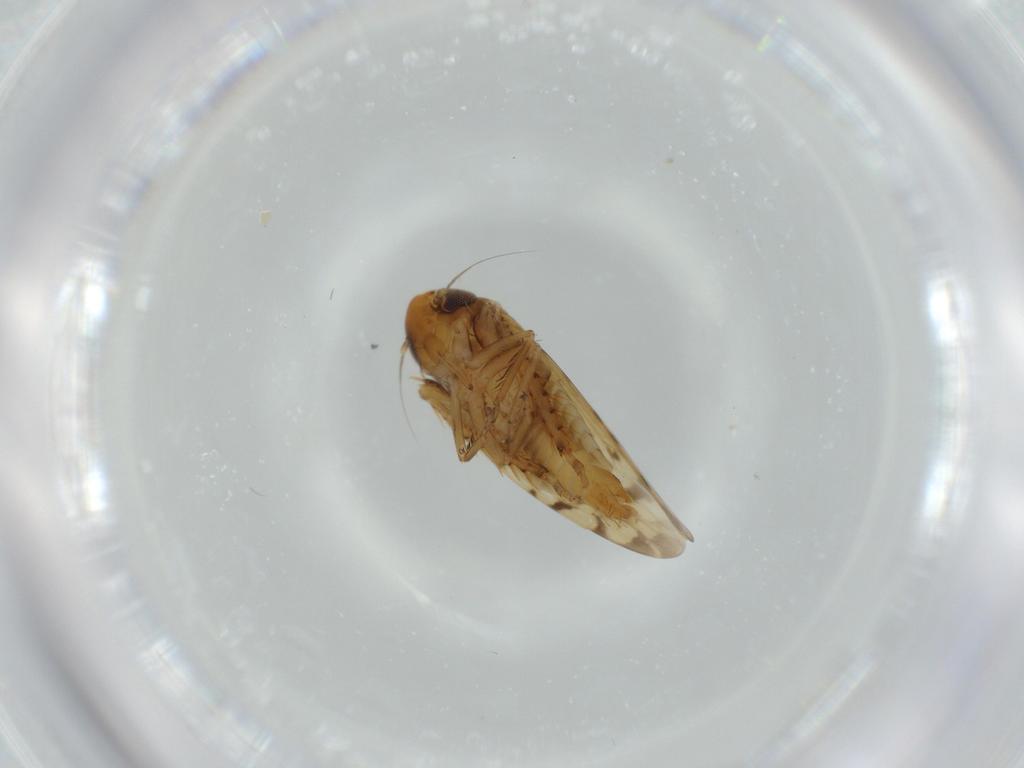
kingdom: Animalia
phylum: Arthropoda
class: Insecta
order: Hemiptera
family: Cicadellidae
